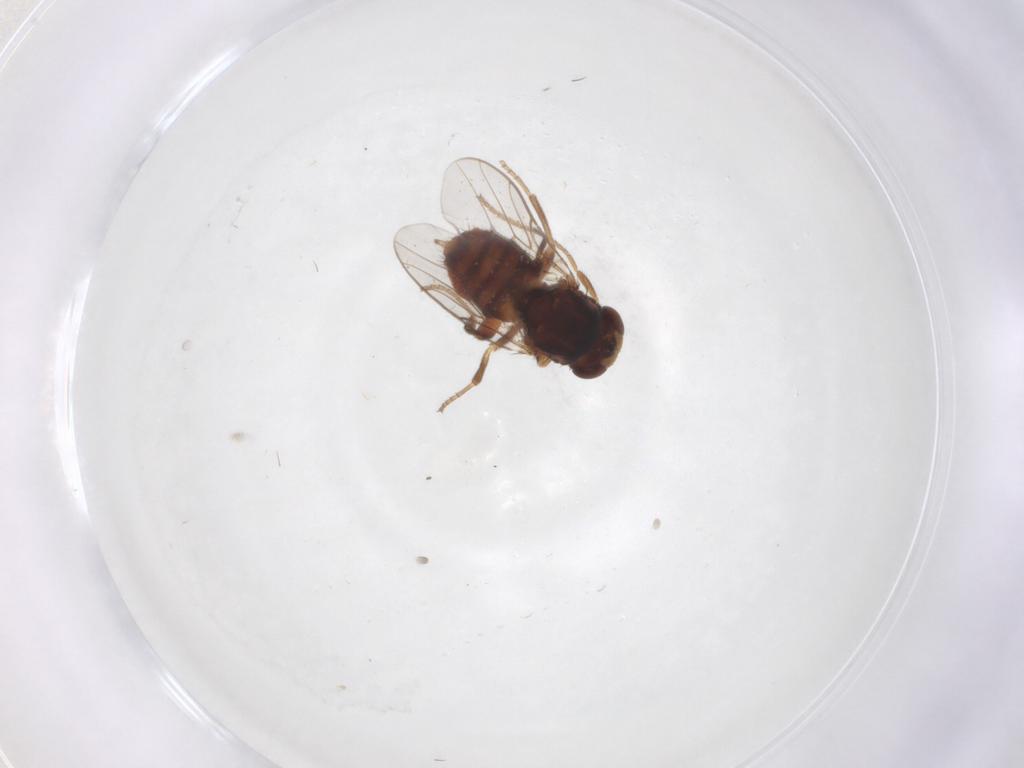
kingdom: Animalia
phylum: Arthropoda
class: Insecta
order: Diptera
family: Chloropidae
